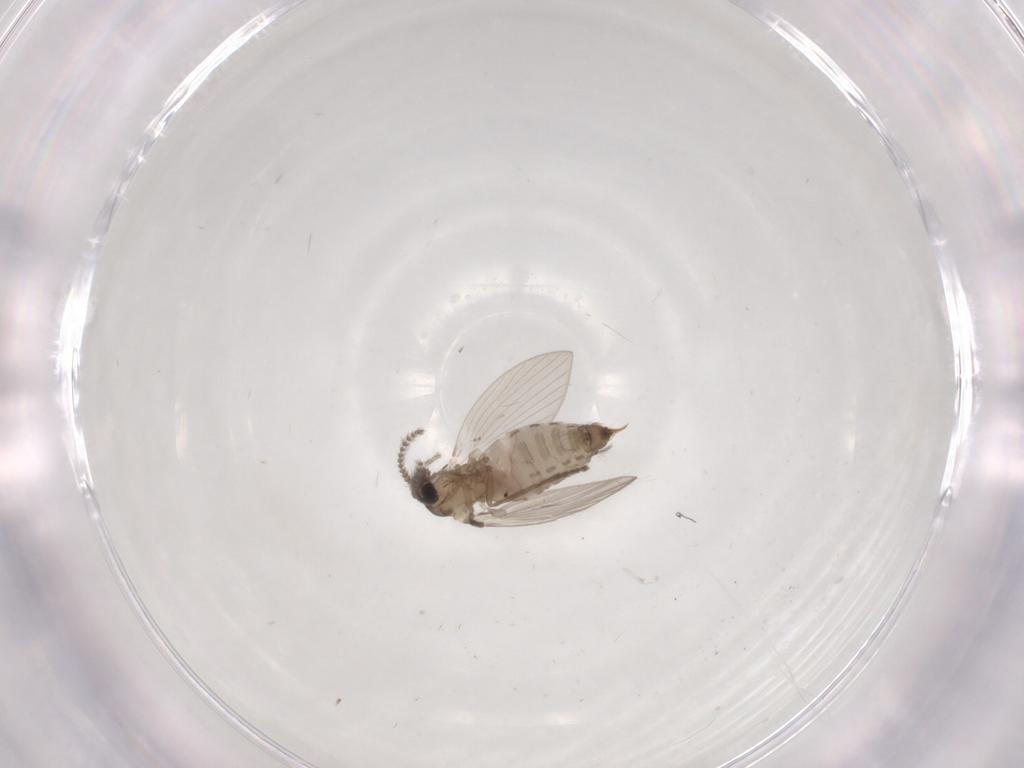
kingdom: Animalia
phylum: Arthropoda
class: Insecta
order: Diptera
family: Psychodidae
